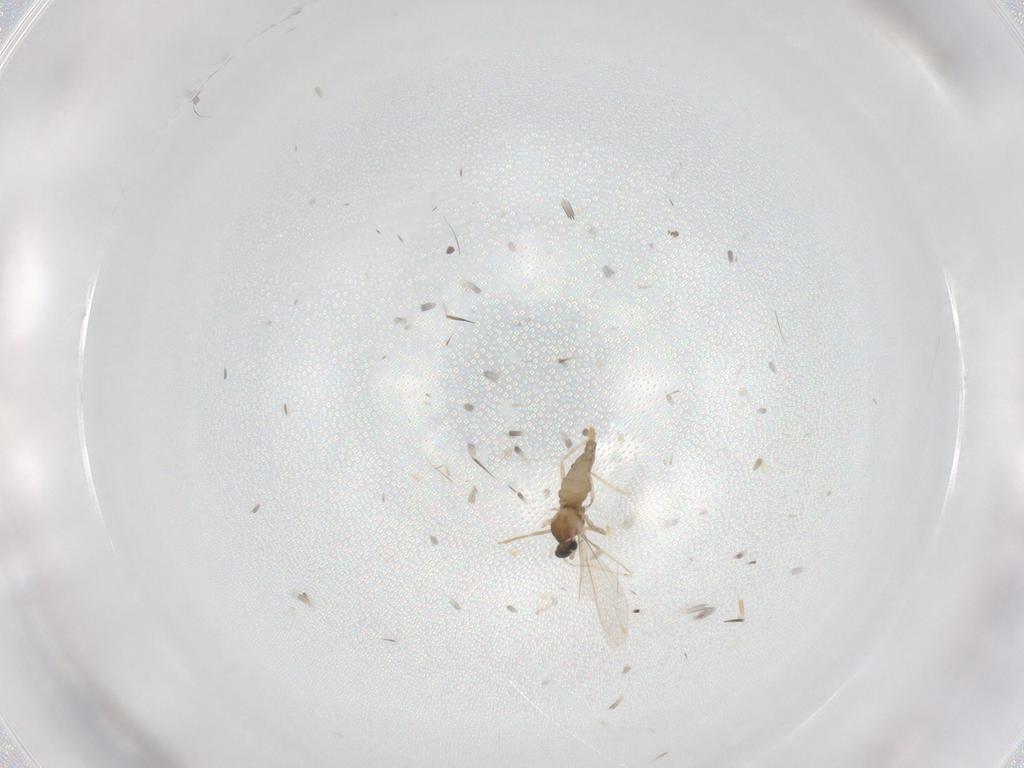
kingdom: Animalia
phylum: Arthropoda
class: Insecta
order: Diptera
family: Cecidomyiidae
